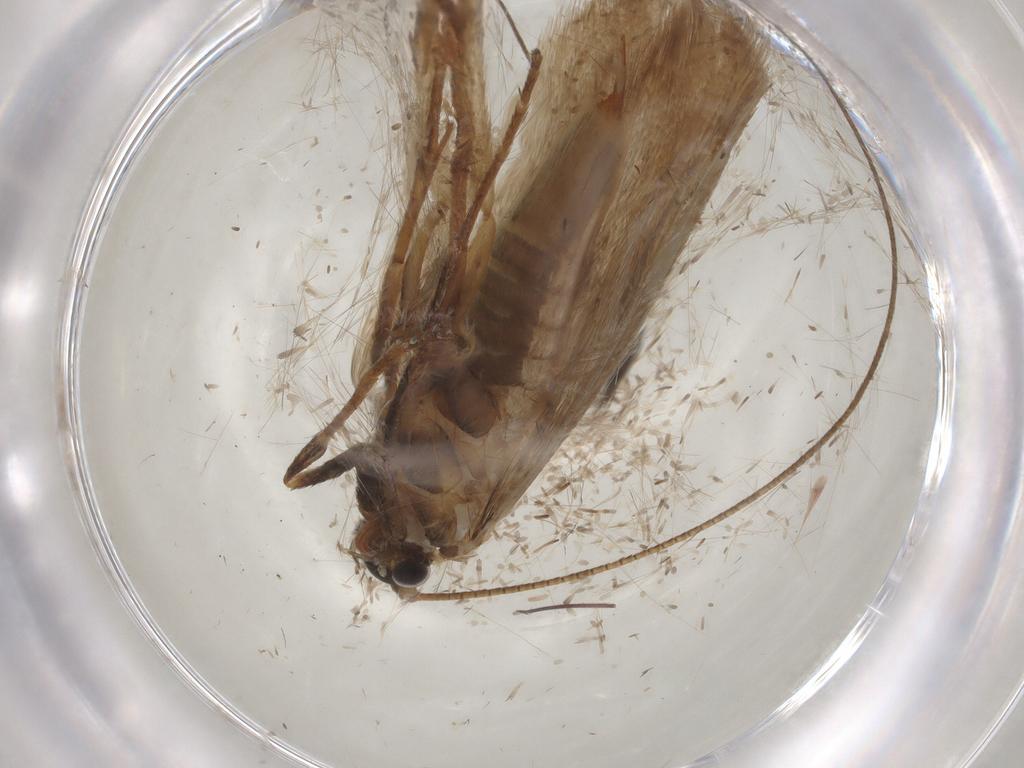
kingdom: Animalia
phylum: Arthropoda
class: Insecta
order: Lepidoptera
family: Adelidae
